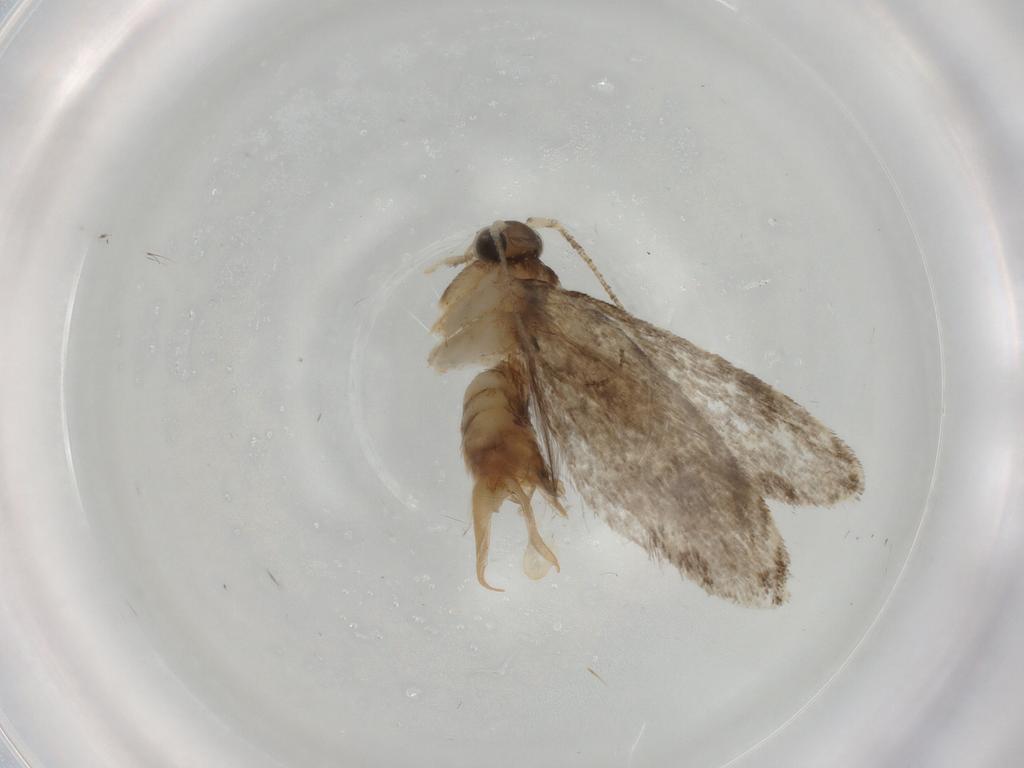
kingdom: Animalia
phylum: Arthropoda
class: Insecta
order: Lepidoptera
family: Tineidae
